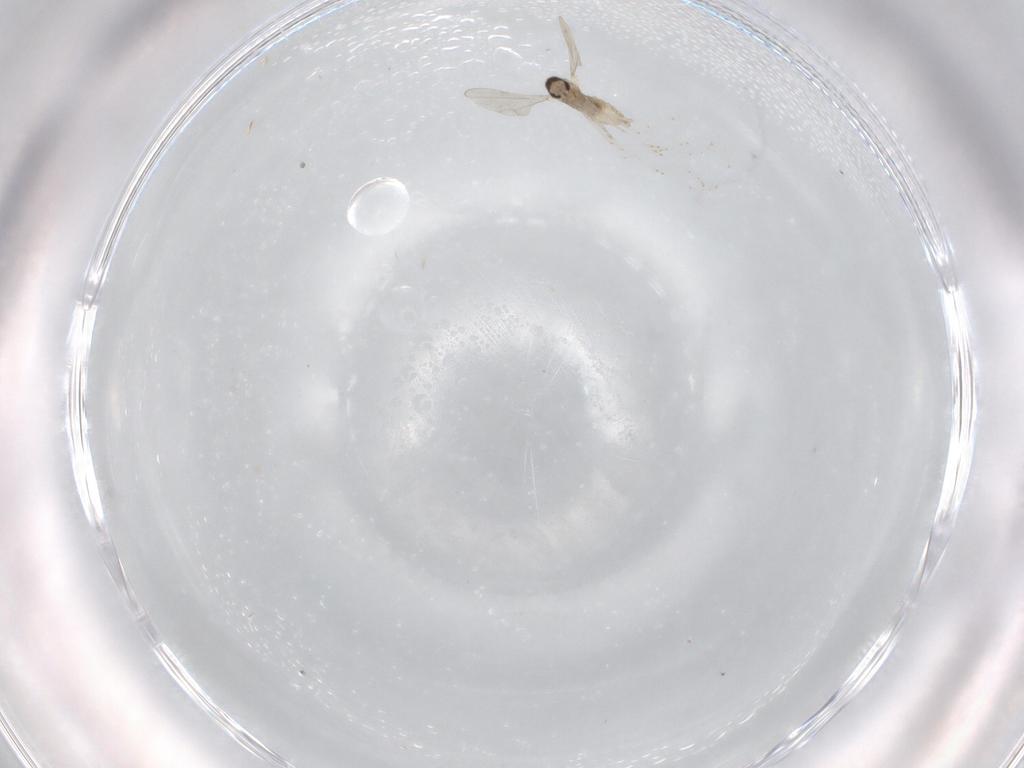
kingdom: Animalia
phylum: Arthropoda
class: Insecta
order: Diptera
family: Cecidomyiidae
